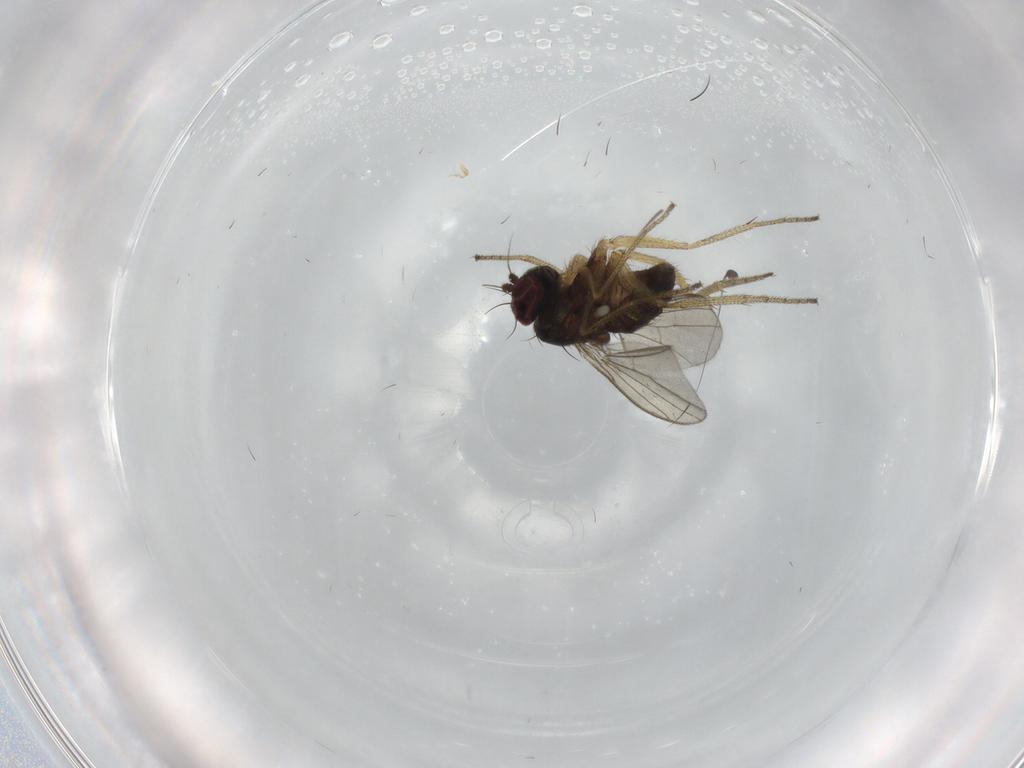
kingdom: Animalia
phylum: Arthropoda
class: Insecta
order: Diptera
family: Dolichopodidae
